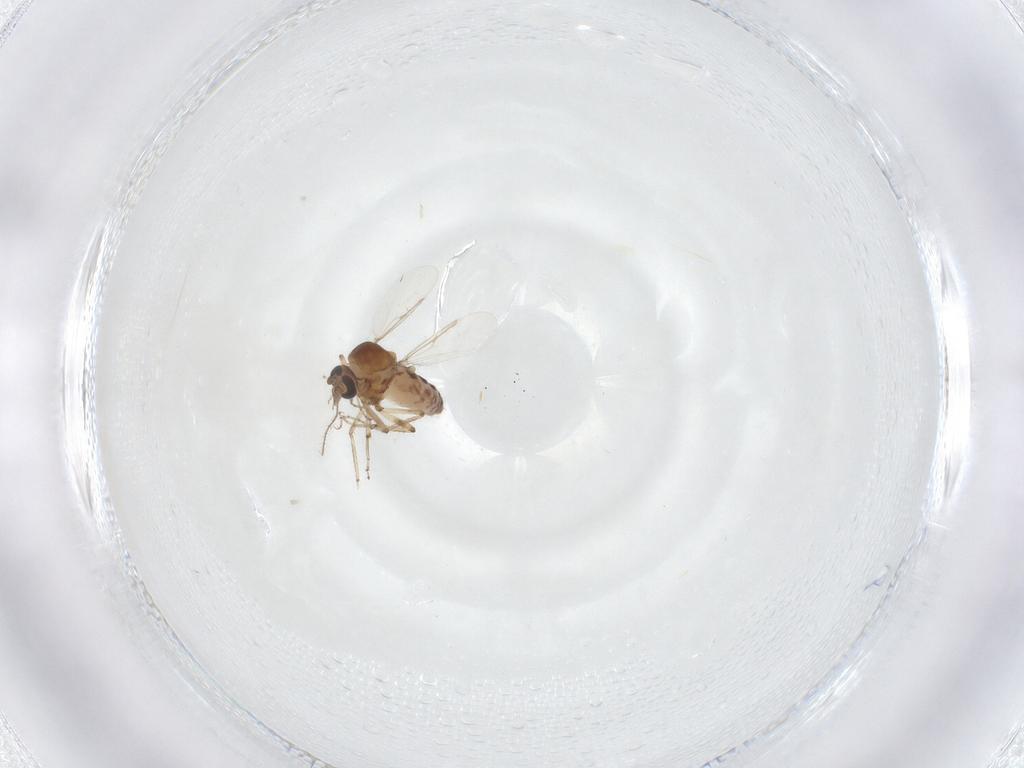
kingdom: Animalia
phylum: Arthropoda
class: Insecta
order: Diptera
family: Ceratopogonidae
